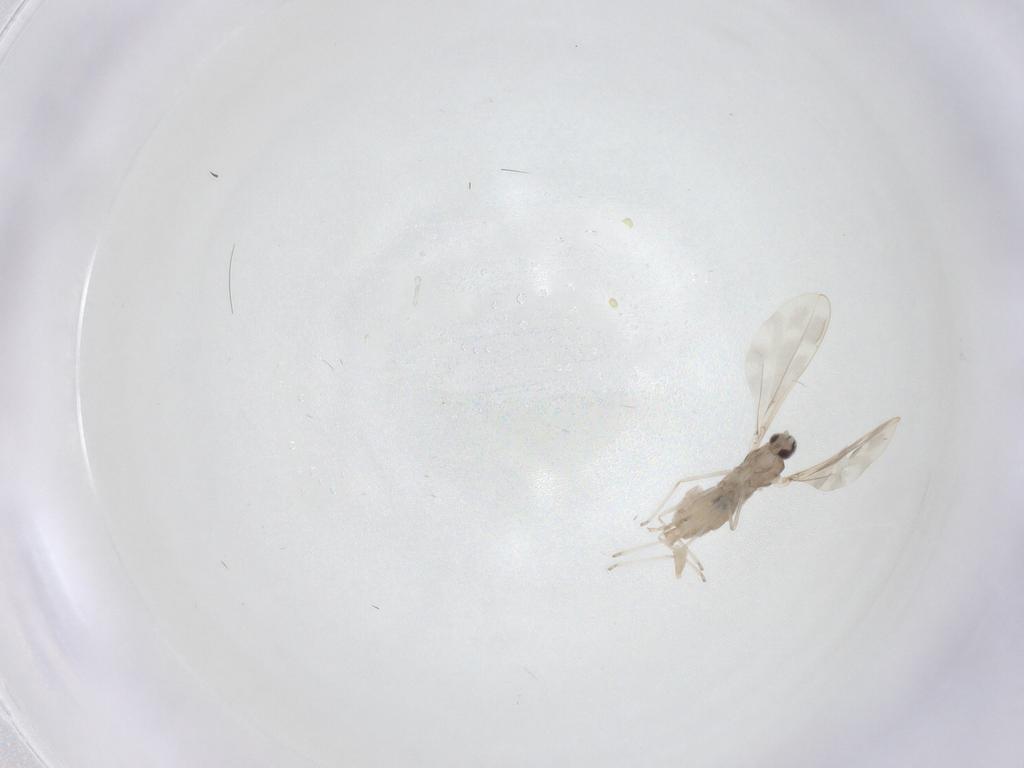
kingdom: Animalia
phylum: Arthropoda
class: Insecta
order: Diptera
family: Cecidomyiidae
